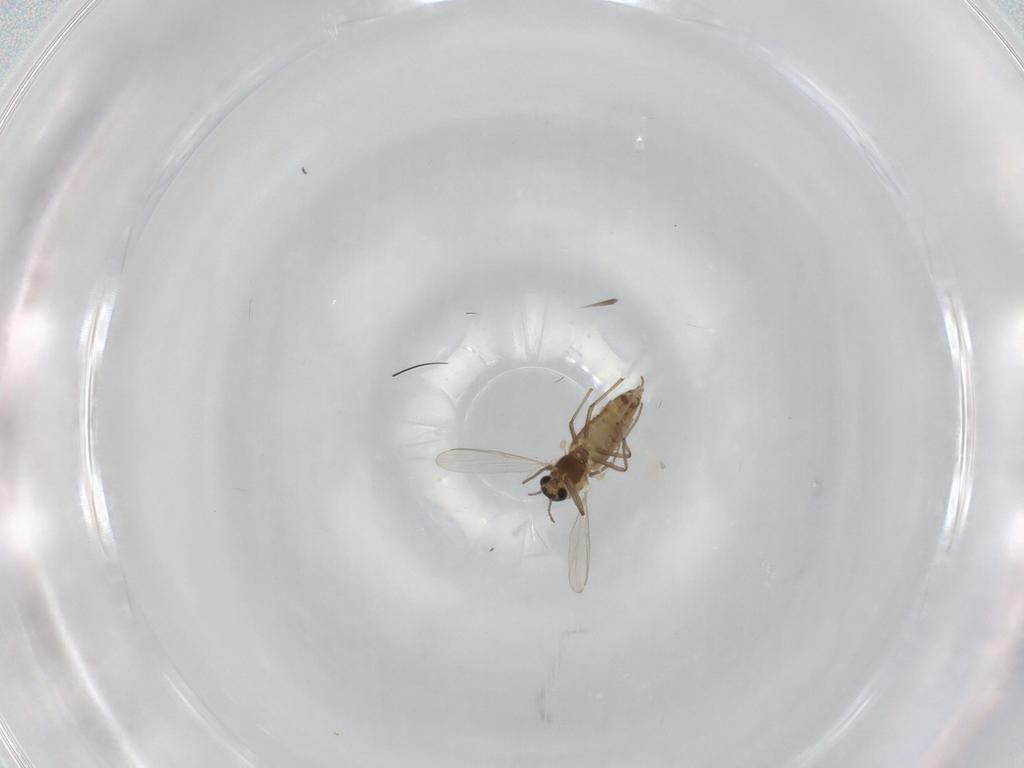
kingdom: Animalia
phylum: Arthropoda
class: Insecta
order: Diptera
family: Chironomidae
